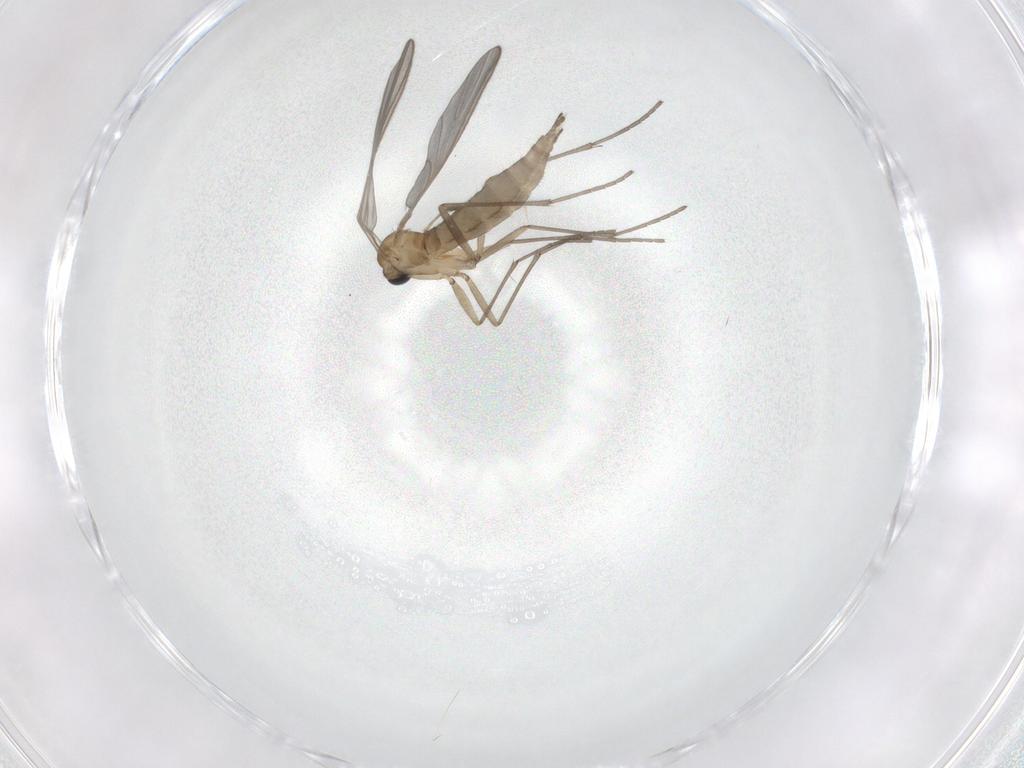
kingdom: Animalia
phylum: Arthropoda
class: Insecta
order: Diptera
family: Sciaridae
